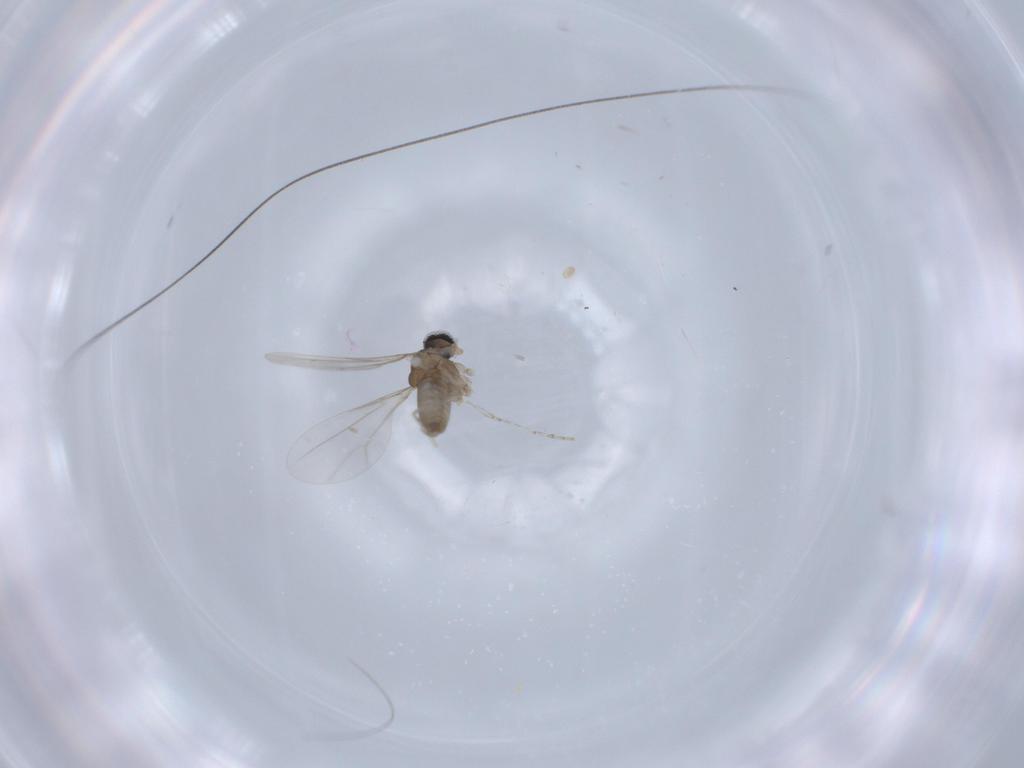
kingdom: Animalia
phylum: Arthropoda
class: Insecta
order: Diptera
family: Cecidomyiidae
